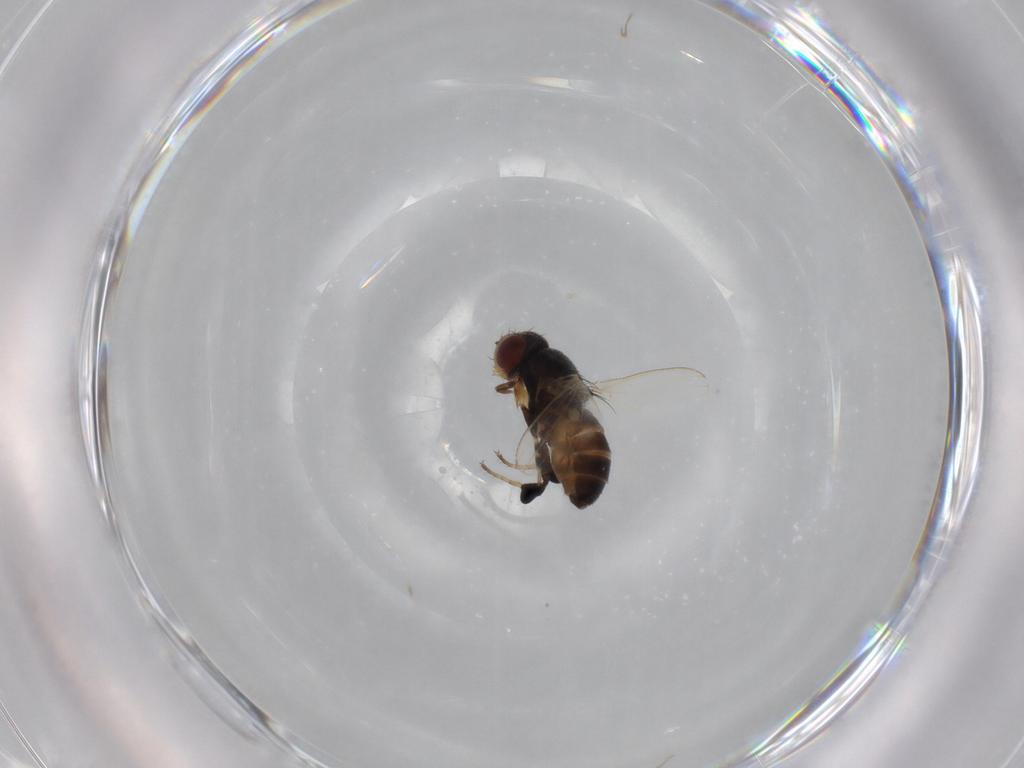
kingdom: Animalia
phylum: Arthropoda
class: Insecta
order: Diptera
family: Milichiidae
